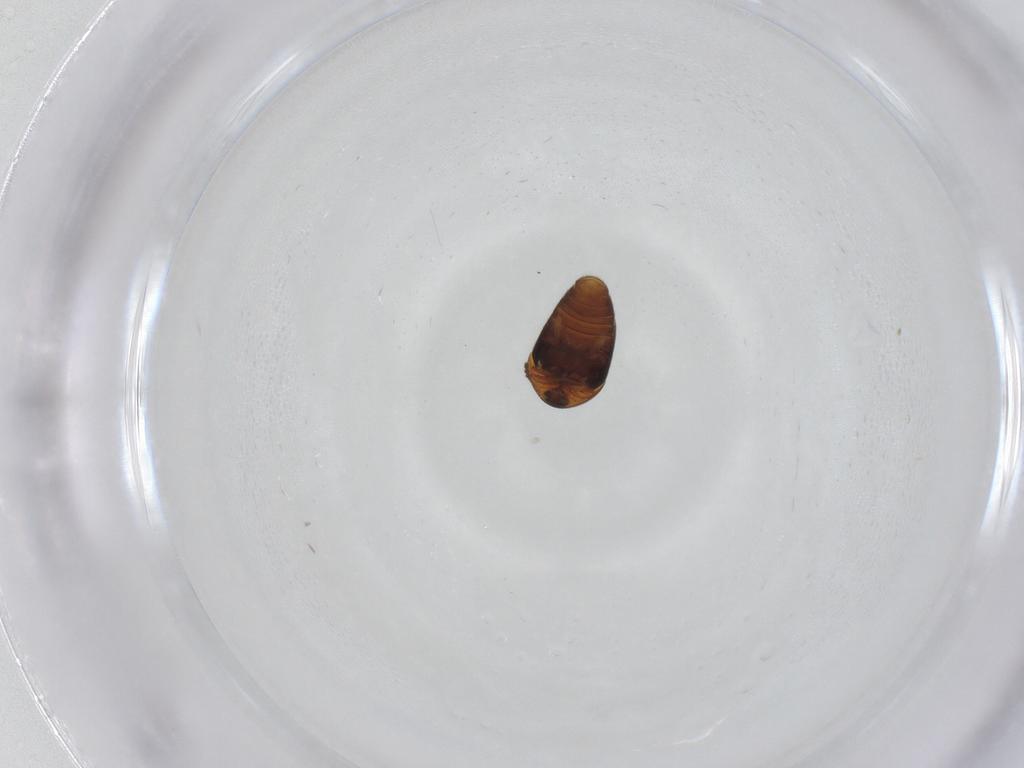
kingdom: Animalia
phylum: Arthropoda
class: Insecta
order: Coleoptera
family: Corylophidae
